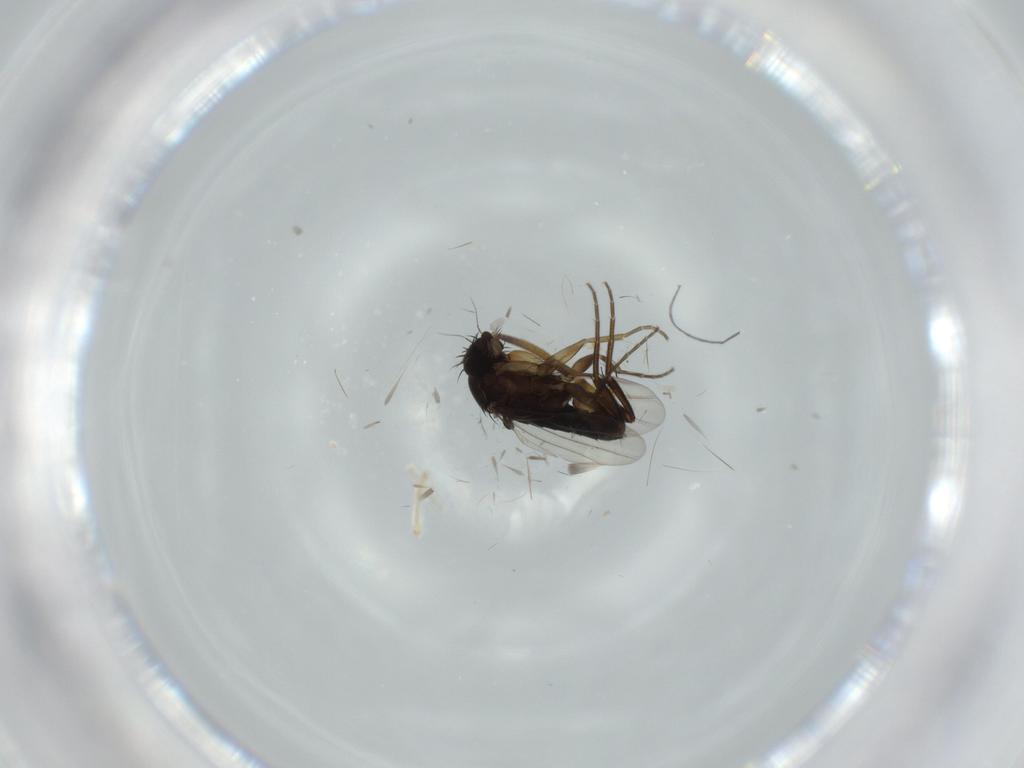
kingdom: Animalia
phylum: Arthropoda
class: Insecta
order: Diptera
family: Phoridae
